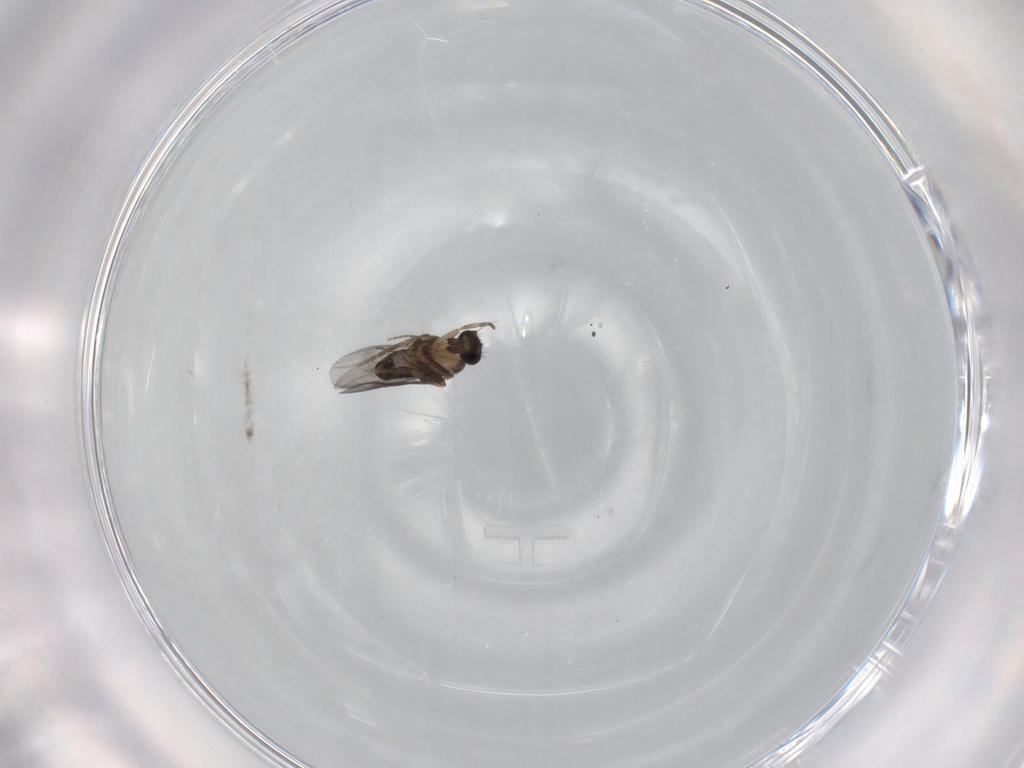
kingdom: Animalia
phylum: Arthropoda
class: Insecta
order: Diptera
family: Phoridae
